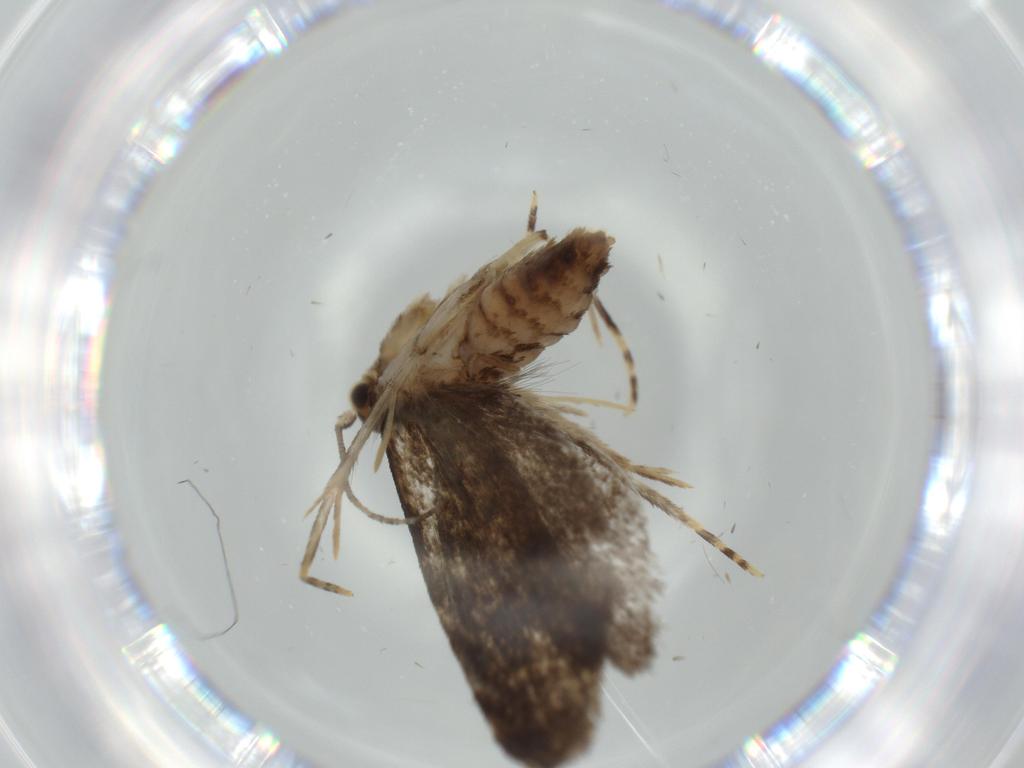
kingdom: Animalia
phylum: Arthropoda
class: Insecta
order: Lepidoptera
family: Tineidae
